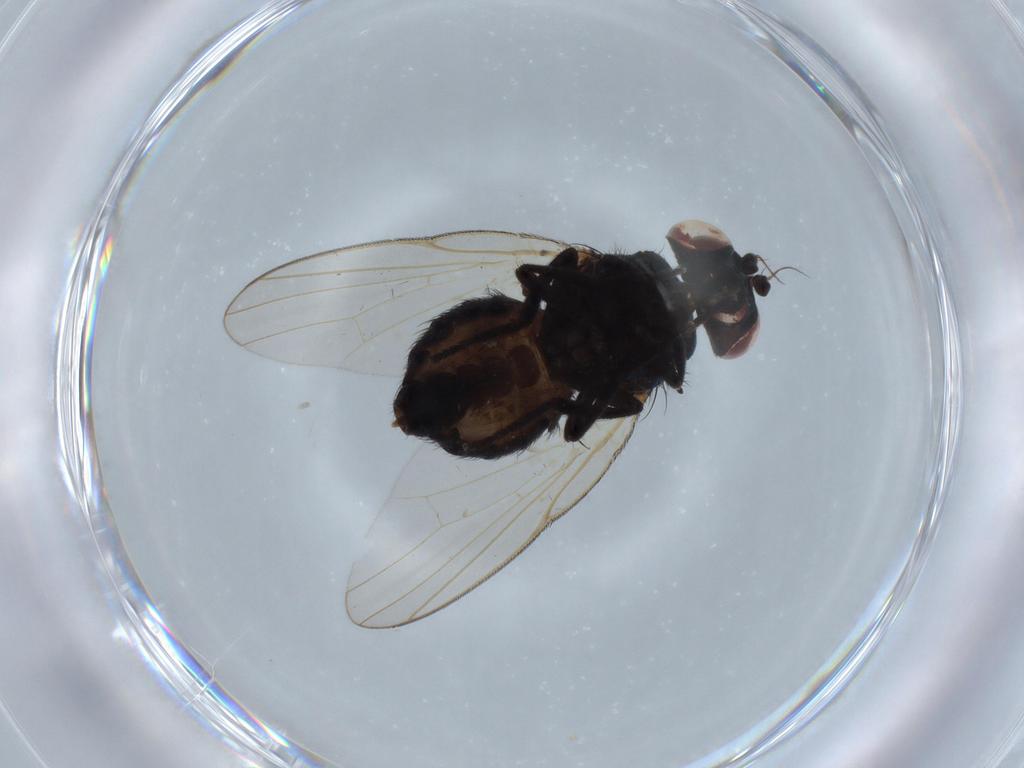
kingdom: Animalia
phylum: Arthropoda
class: Insecta
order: Diptera
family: Lonchaeidae
